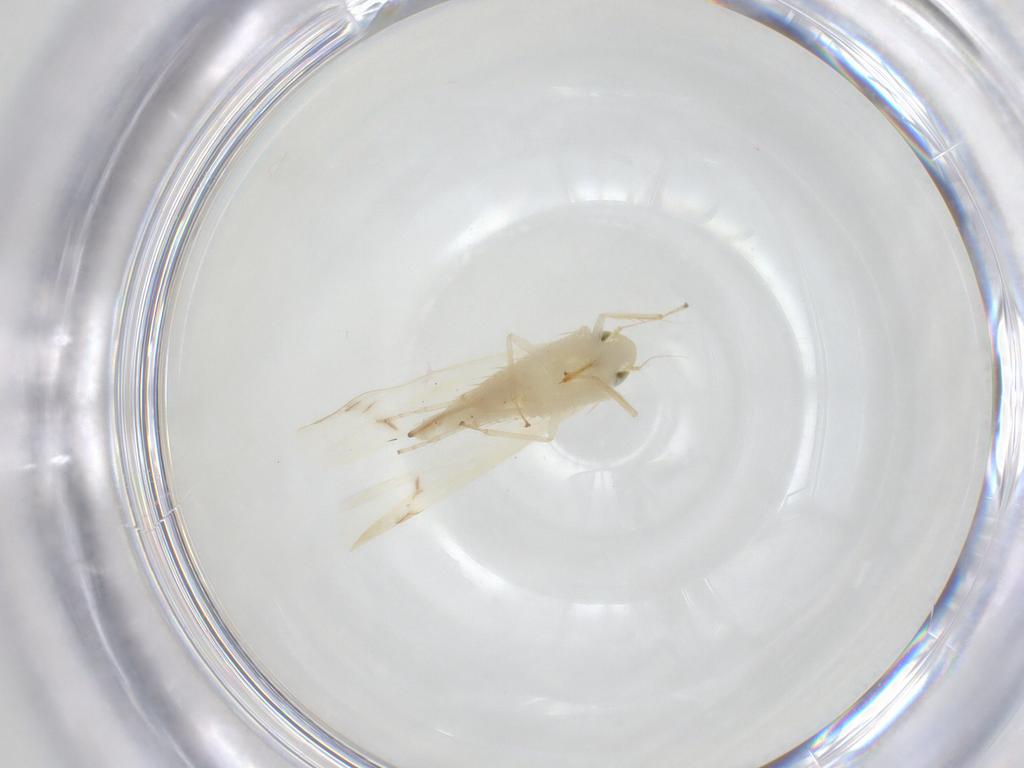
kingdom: Animalia
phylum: Arthropoda
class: Insecta
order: Hemiptera
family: Cicadellidae
